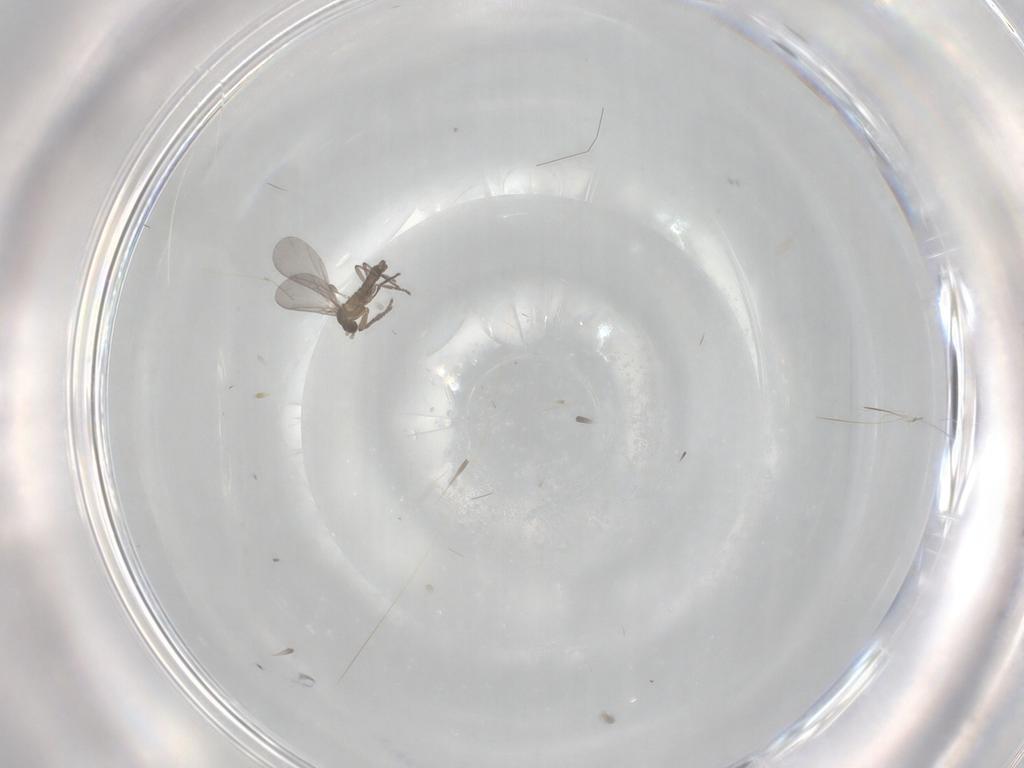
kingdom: Animalia
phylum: Arthropoda
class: Insecta
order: Diptera
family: Sciaridae
